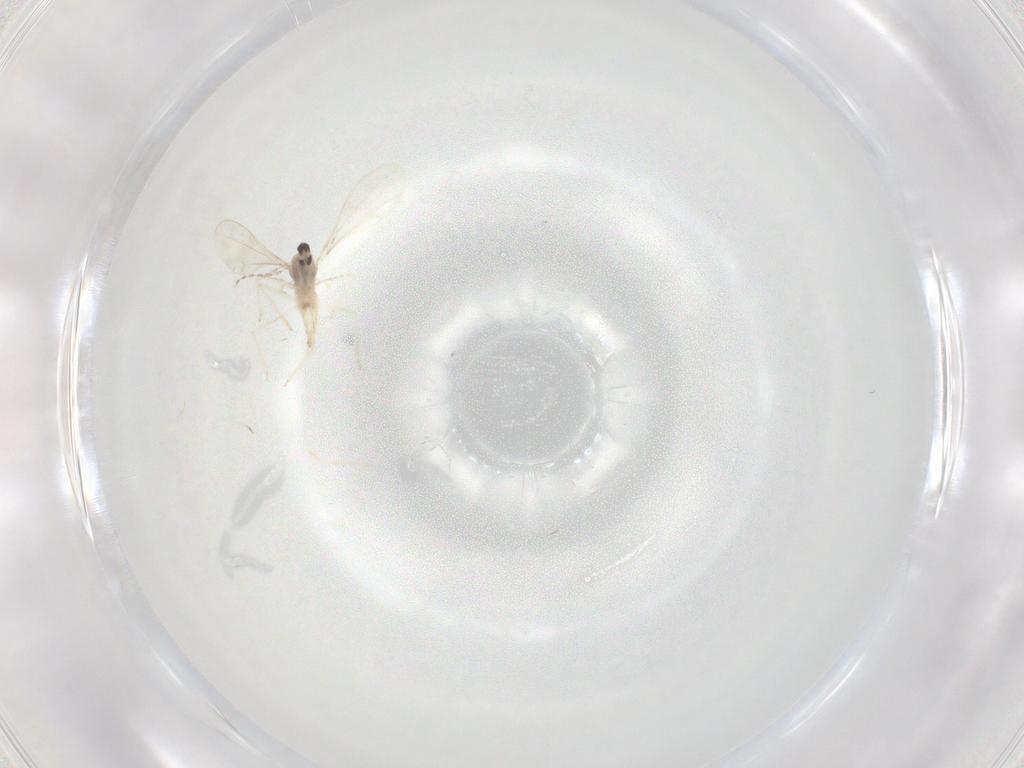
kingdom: Animalia
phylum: Arthropoda
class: Insecta
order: Diptera
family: Cecidomyiidae
